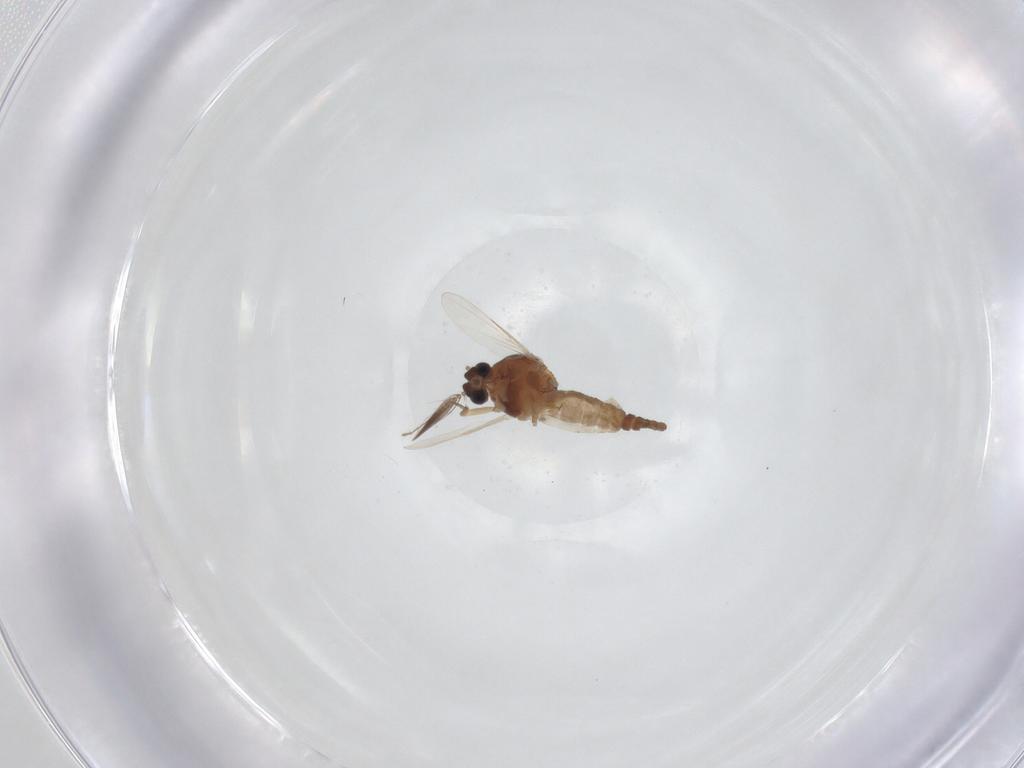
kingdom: Animalia
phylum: Arthropoda
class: Insecta
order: Diptera
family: Ceratopogonidae
